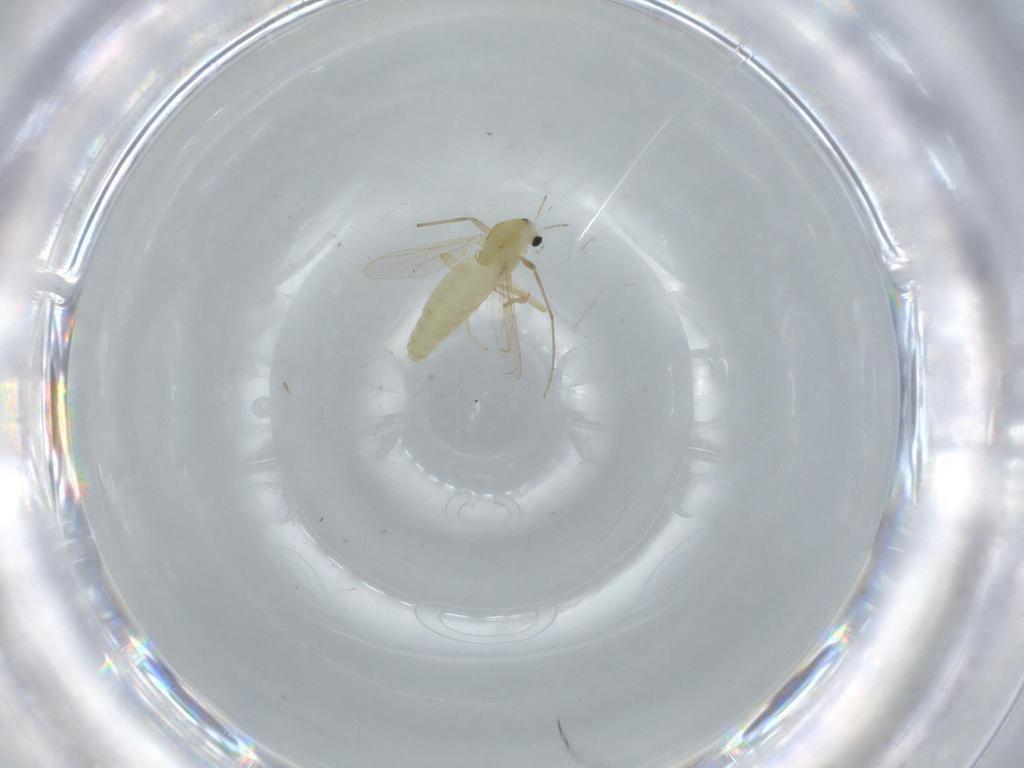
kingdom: Animalia
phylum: Arthropoda
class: Insecta
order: Diptera
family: Chironomidae
